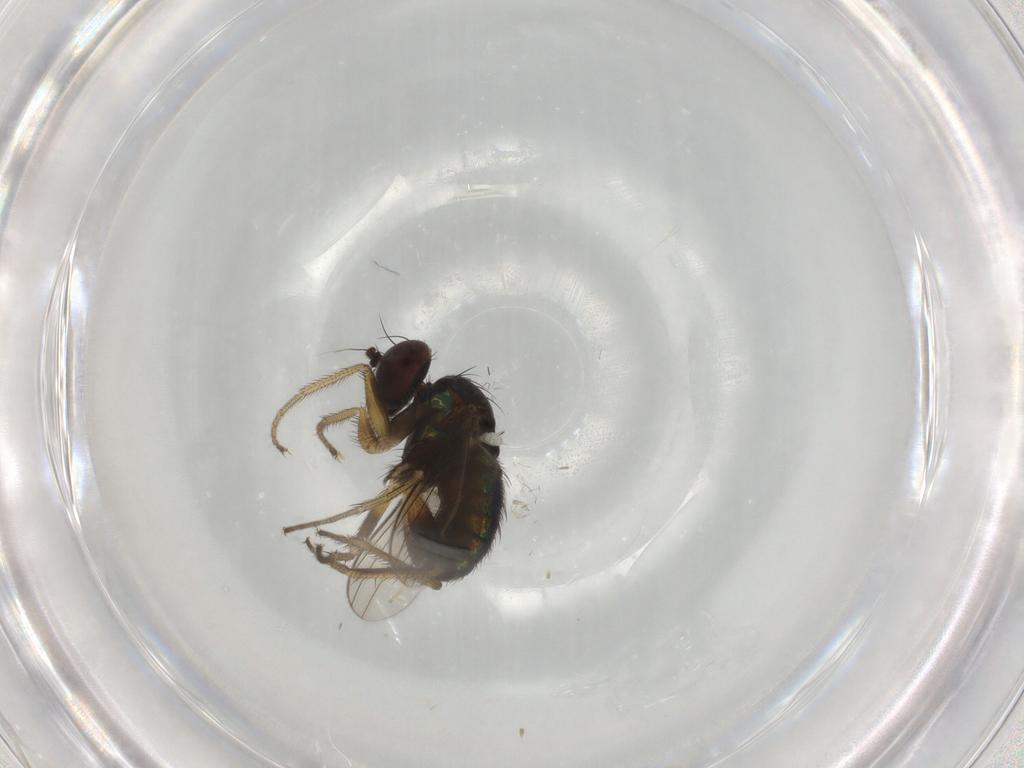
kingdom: Animalia
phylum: Arthropoda
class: Insecta
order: Diptera
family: Dolichopodidae
